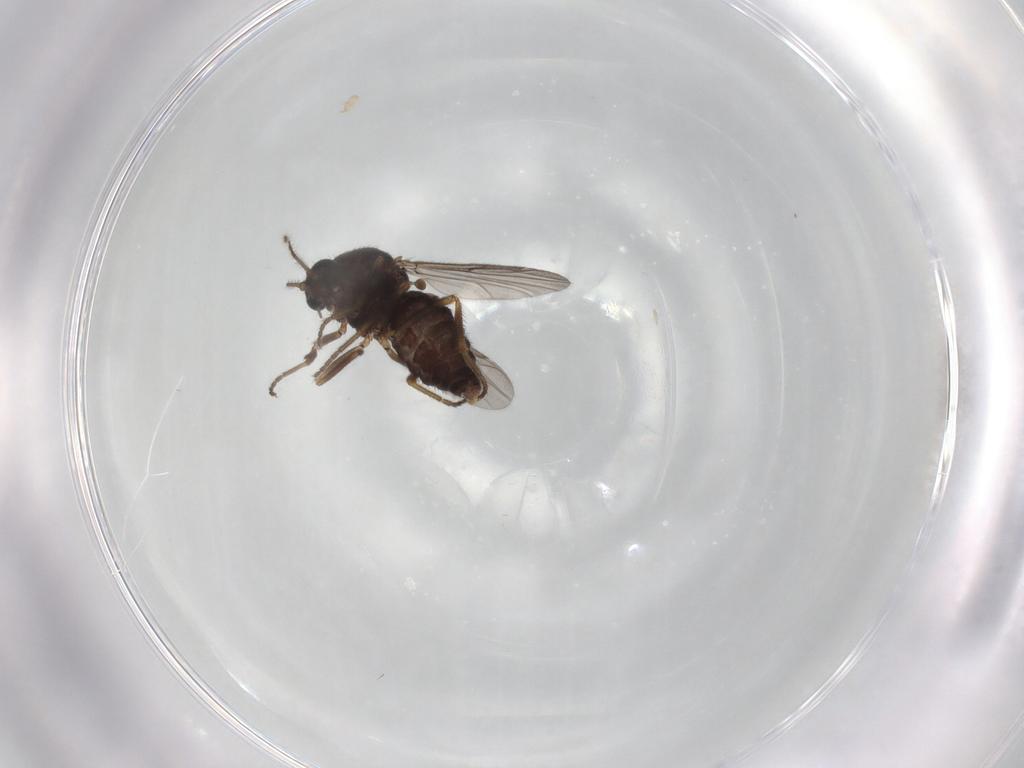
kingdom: Animalia
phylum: Arthropoda
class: Insecta
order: Diptera
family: Ceratopogonidae
